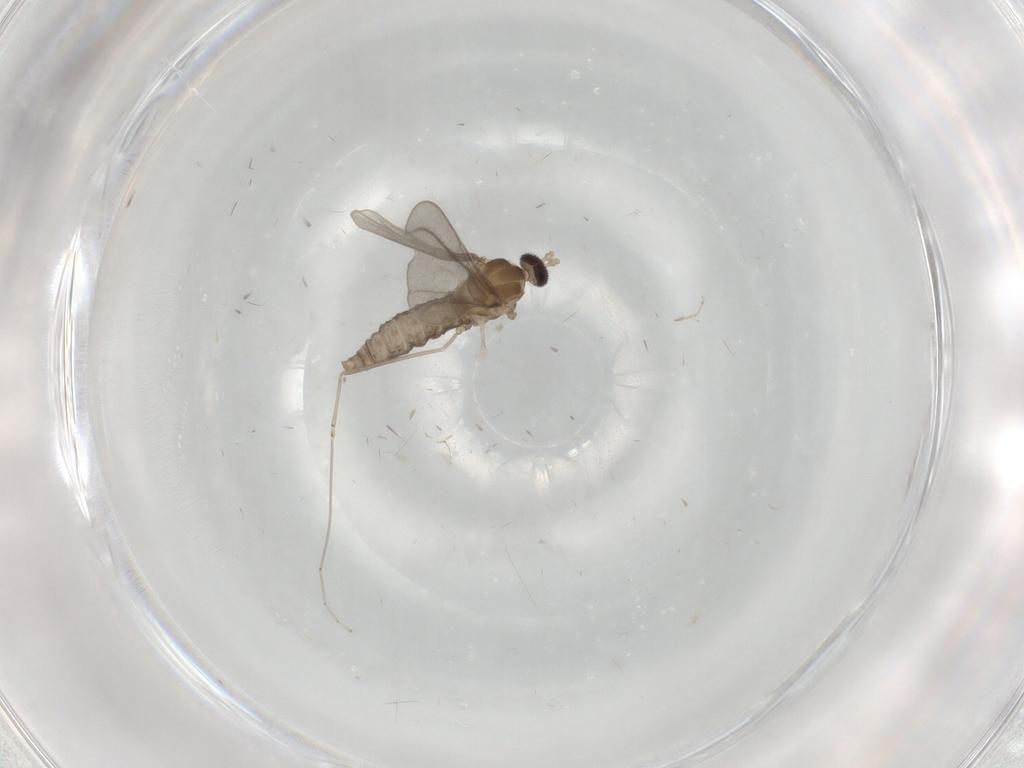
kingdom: Animalia
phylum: Arthropoda
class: Insecta
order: Diptera
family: Cecidomyiidae
